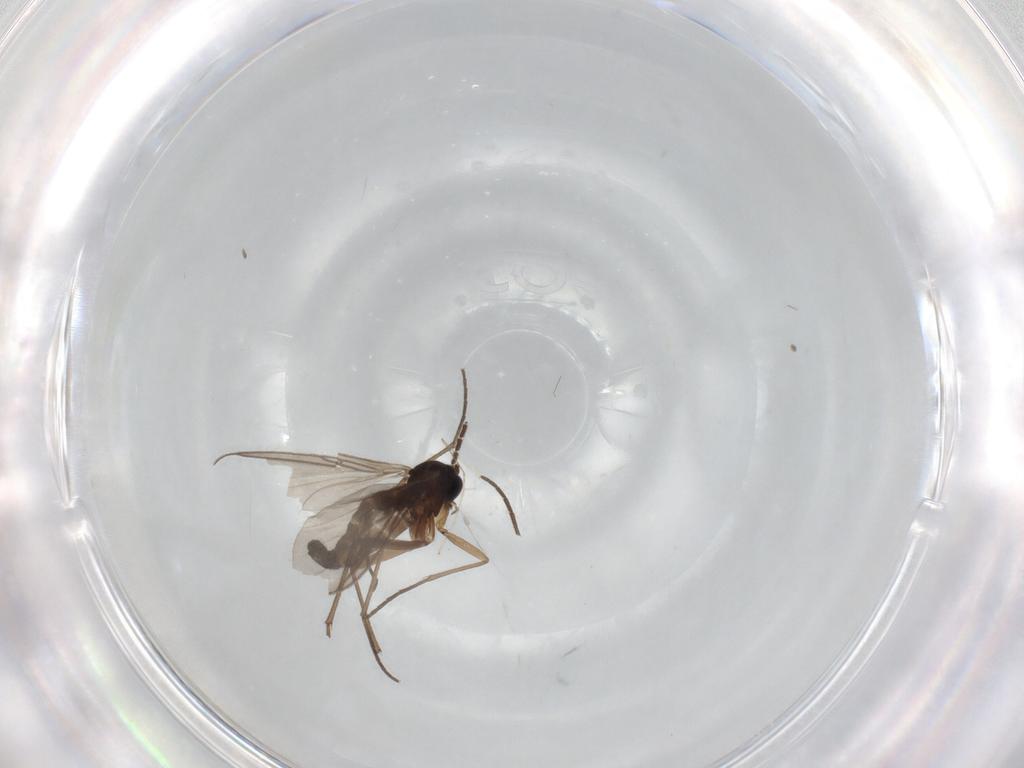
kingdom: Animalia
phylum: Arthropoda
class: Insecta
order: Diptera
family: Sciaridae
